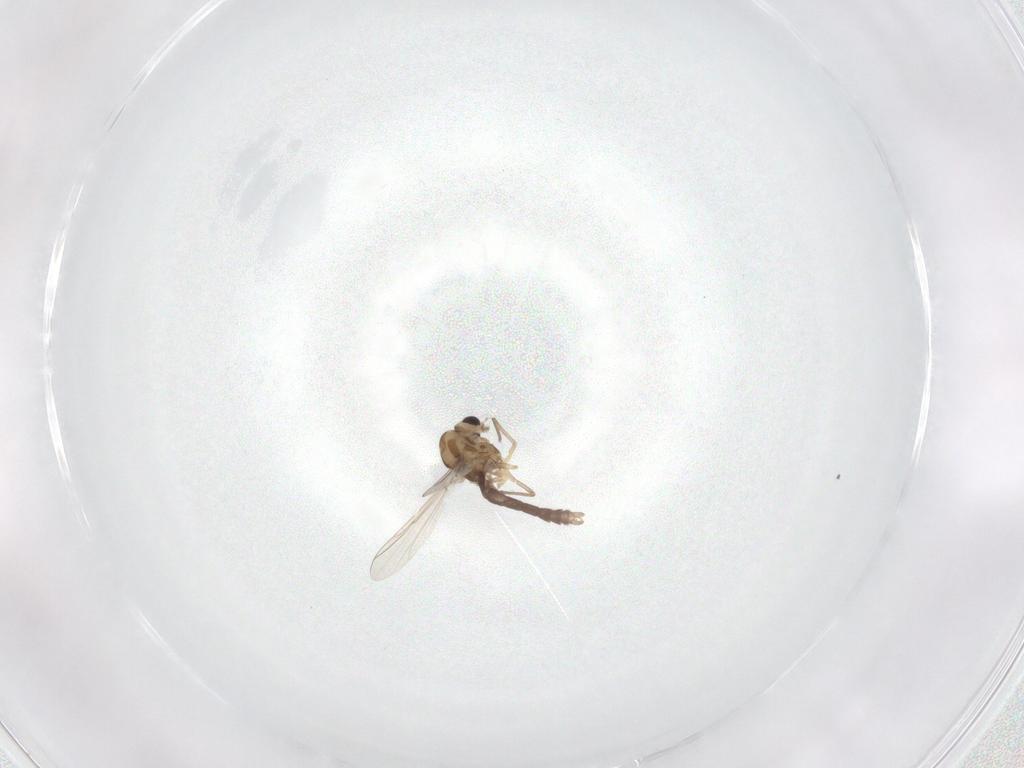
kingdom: Animalia
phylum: Arthropoda
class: Insecta
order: Diptera
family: Chironomidae
